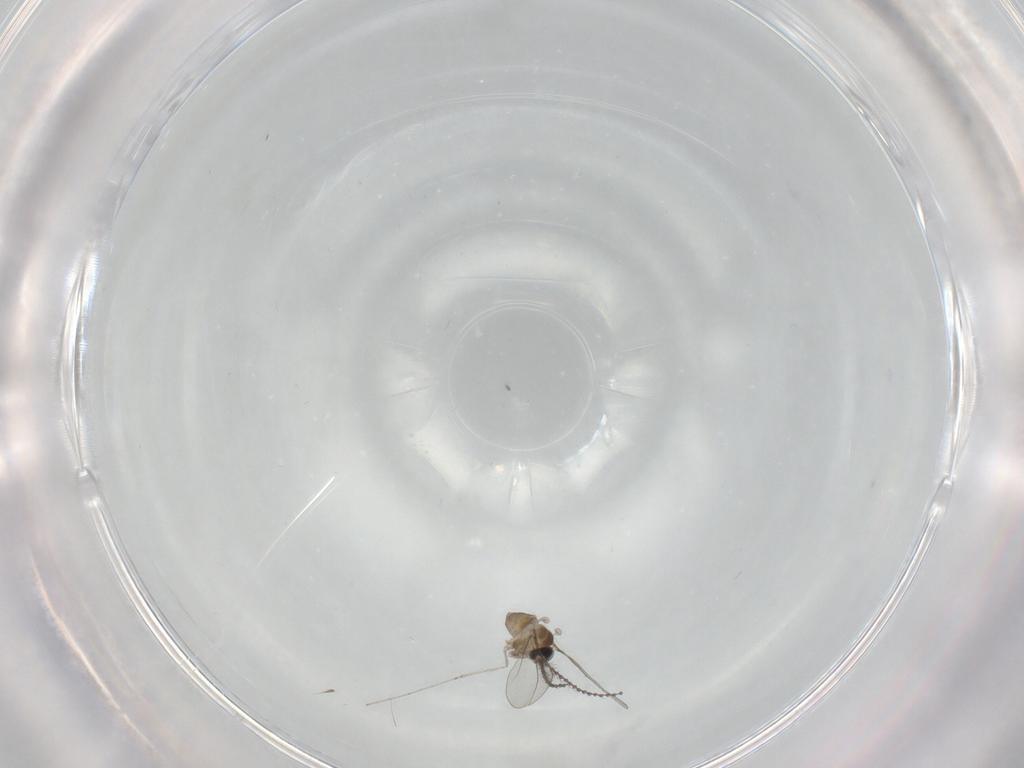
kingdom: Animalia
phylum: Arthropoda
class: Insecta
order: Diptera
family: Cecidomyiidae
